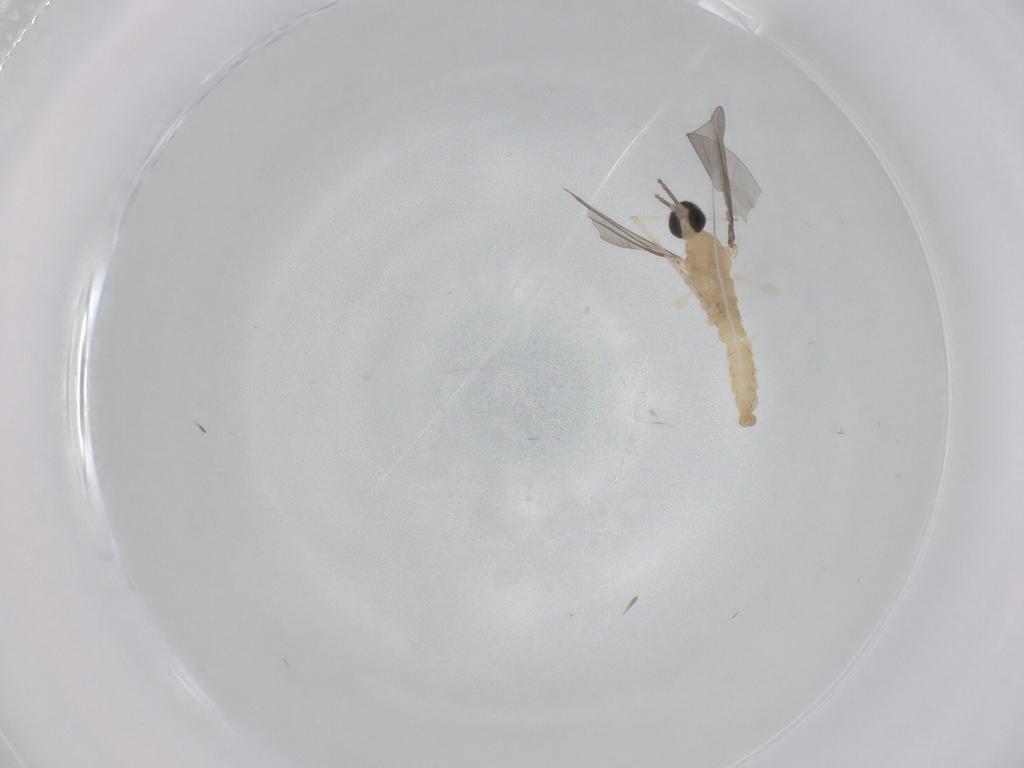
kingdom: Animalia
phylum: Arthropoda
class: Insecta
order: Diptera
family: Cecidomyiidae
